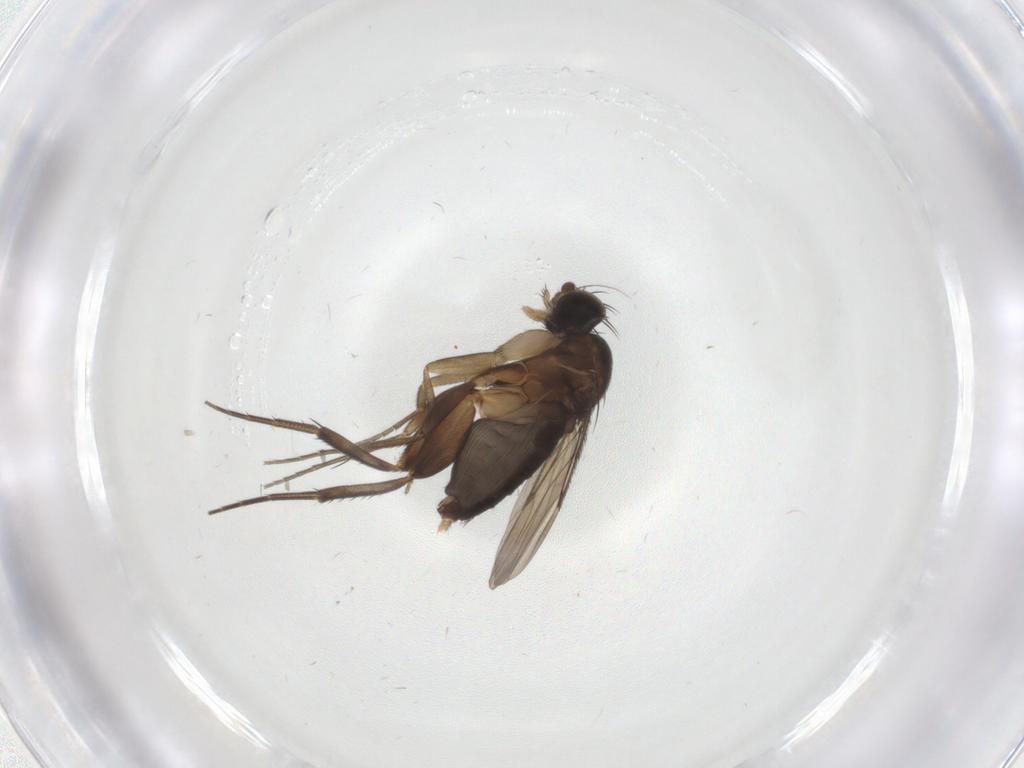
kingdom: Animalia
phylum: Arthropoda
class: Insecta
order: Diptera
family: Phoridae
